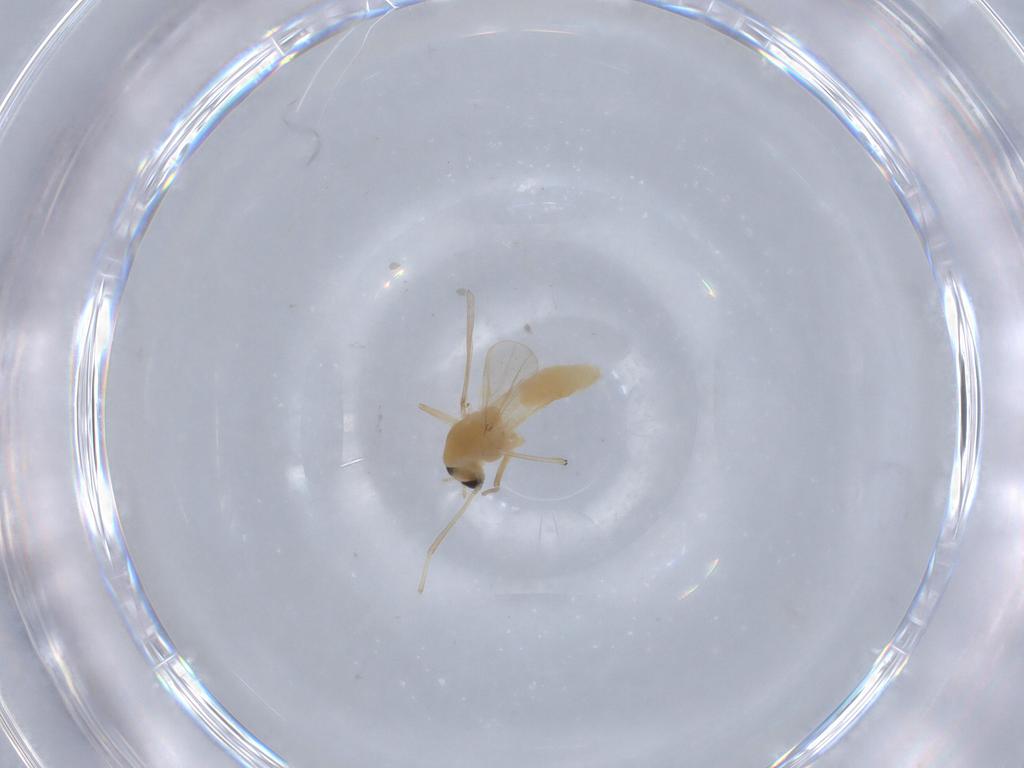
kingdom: Animalia
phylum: Arthropoda
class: Insecta
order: Diptera
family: Chironomidae
